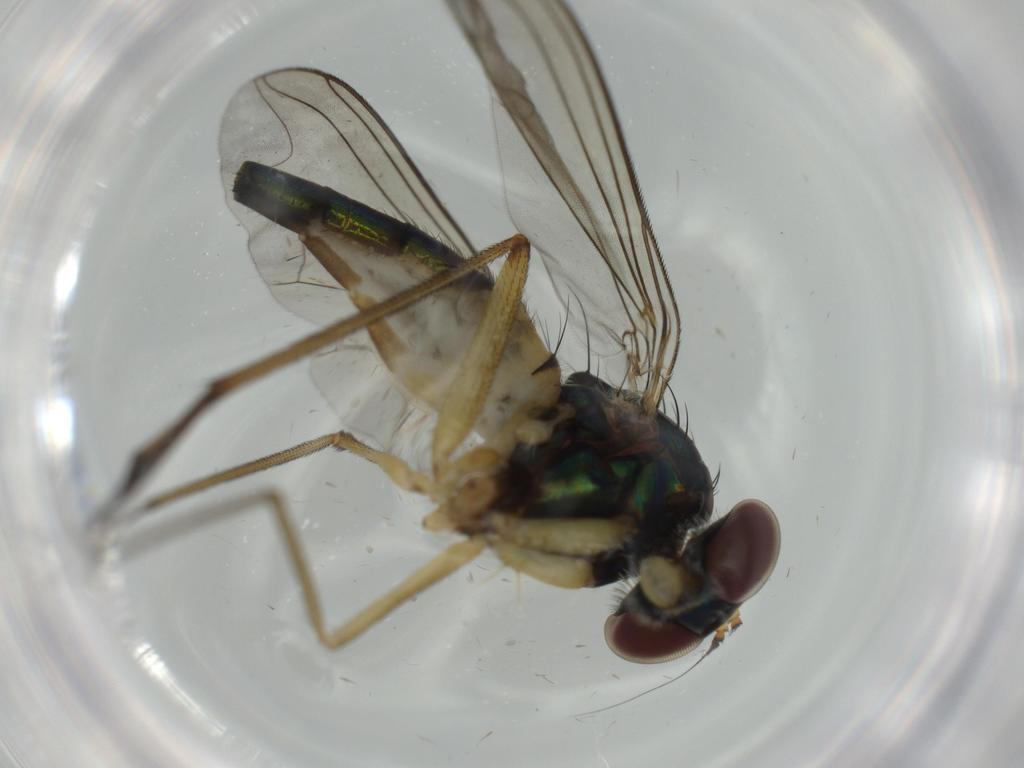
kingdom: Animalia
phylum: Arthropoda
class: Insecta
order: Diptera
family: Dolichopodidae
